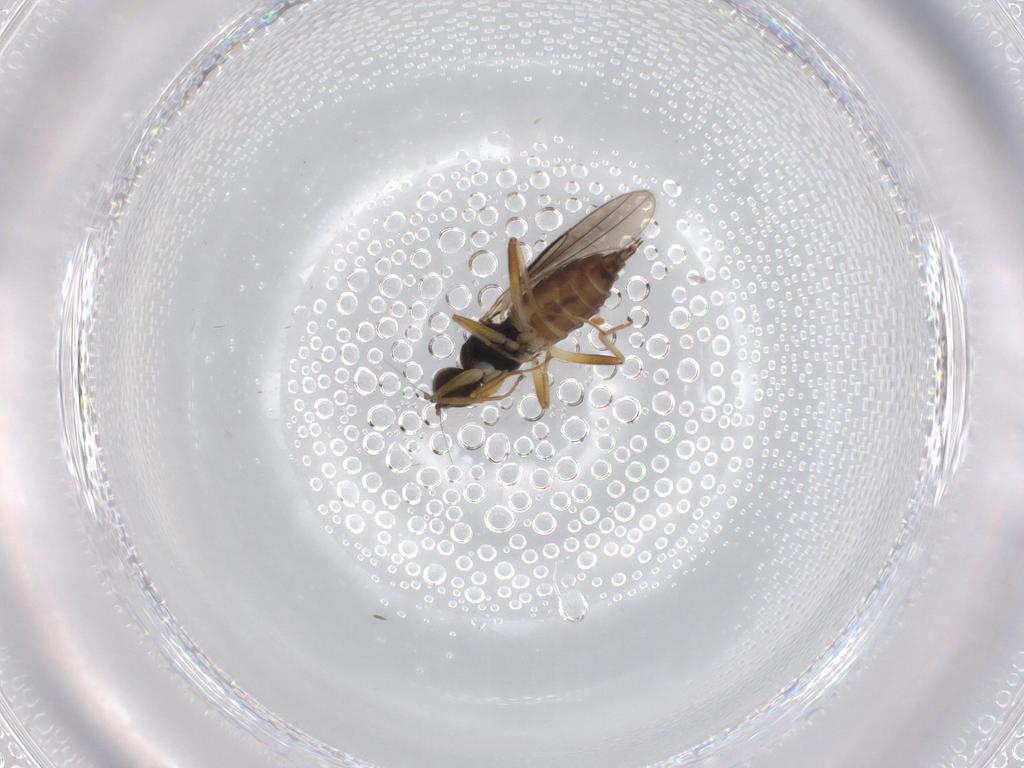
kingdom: Animalia
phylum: Arthropoda
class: Insecta
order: Diptera
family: Hybotidae
